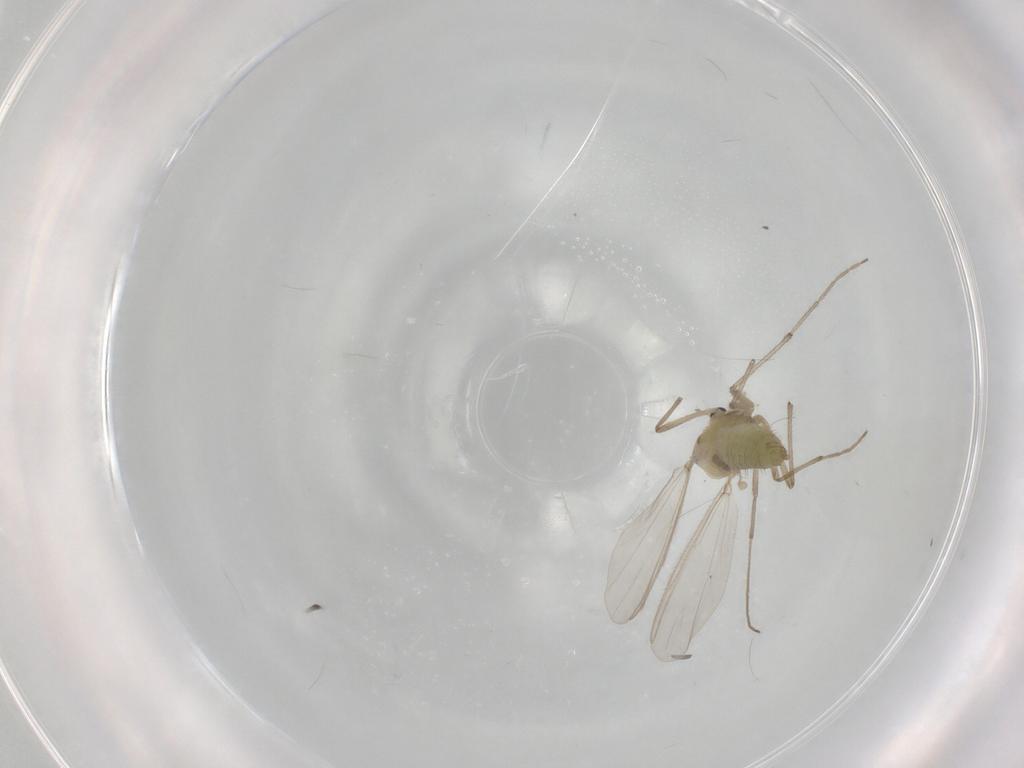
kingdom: Animalia
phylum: Arthropoda
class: Insecta
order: Diptera
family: Chironomidae
